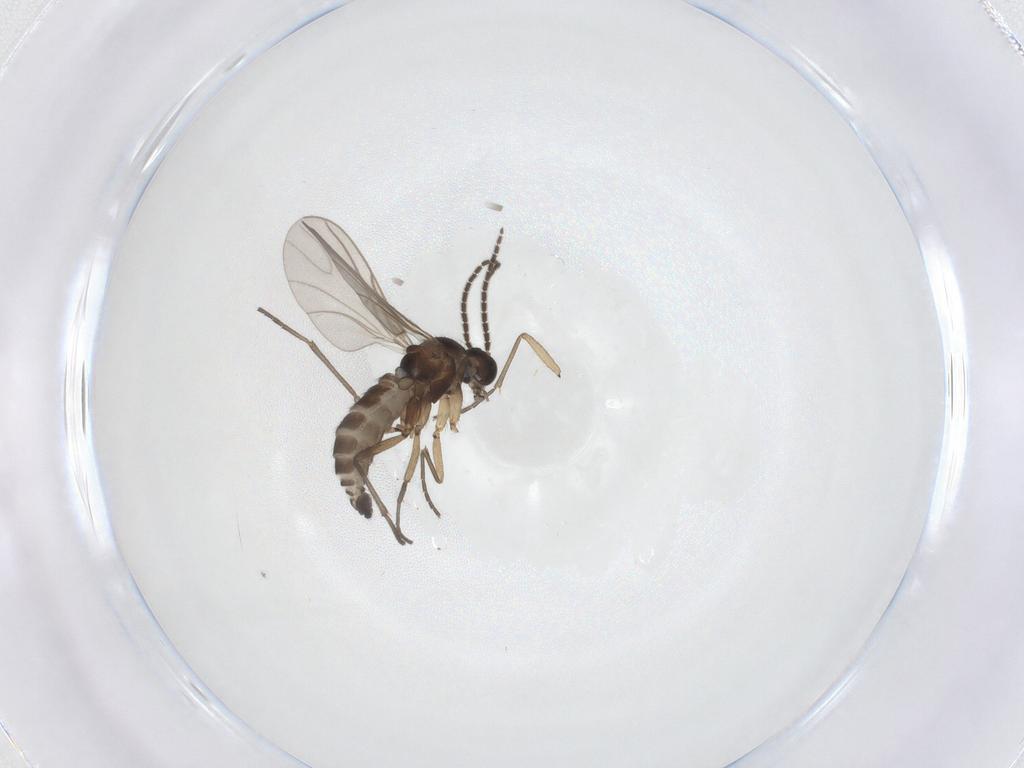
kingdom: Animalia
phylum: Arthropoda
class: Insecta
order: Diptera
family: Sciaridae
